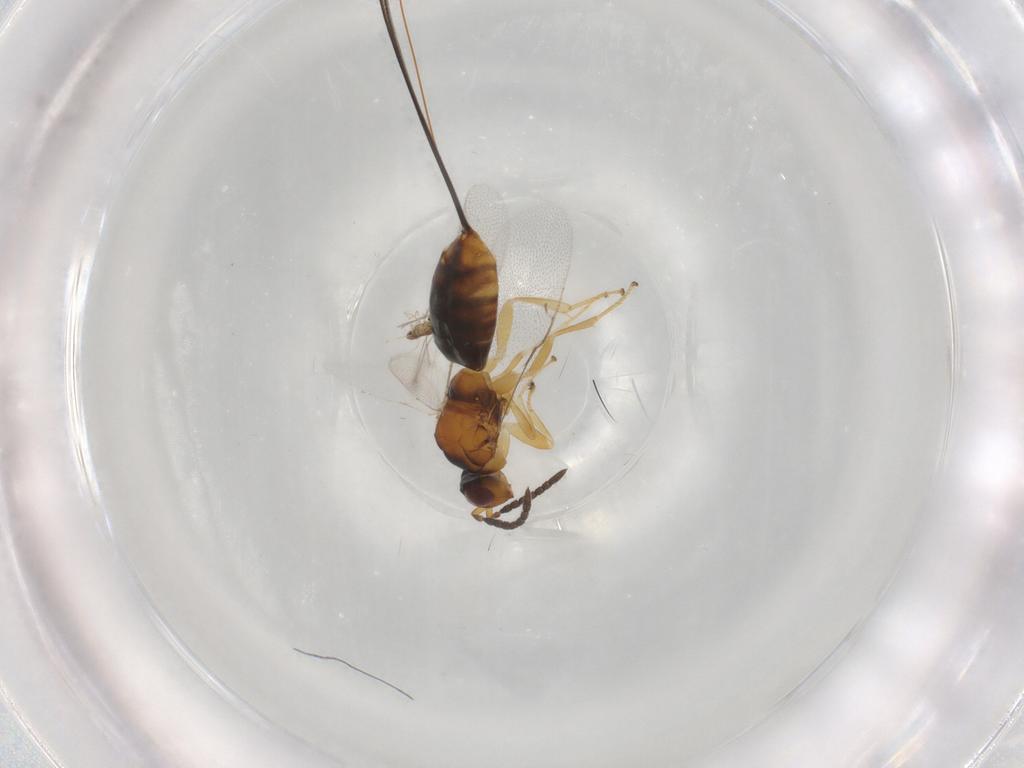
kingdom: Animalia
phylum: Arthropoda
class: Insecta
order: Hymenoptera
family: Pteromalidae
